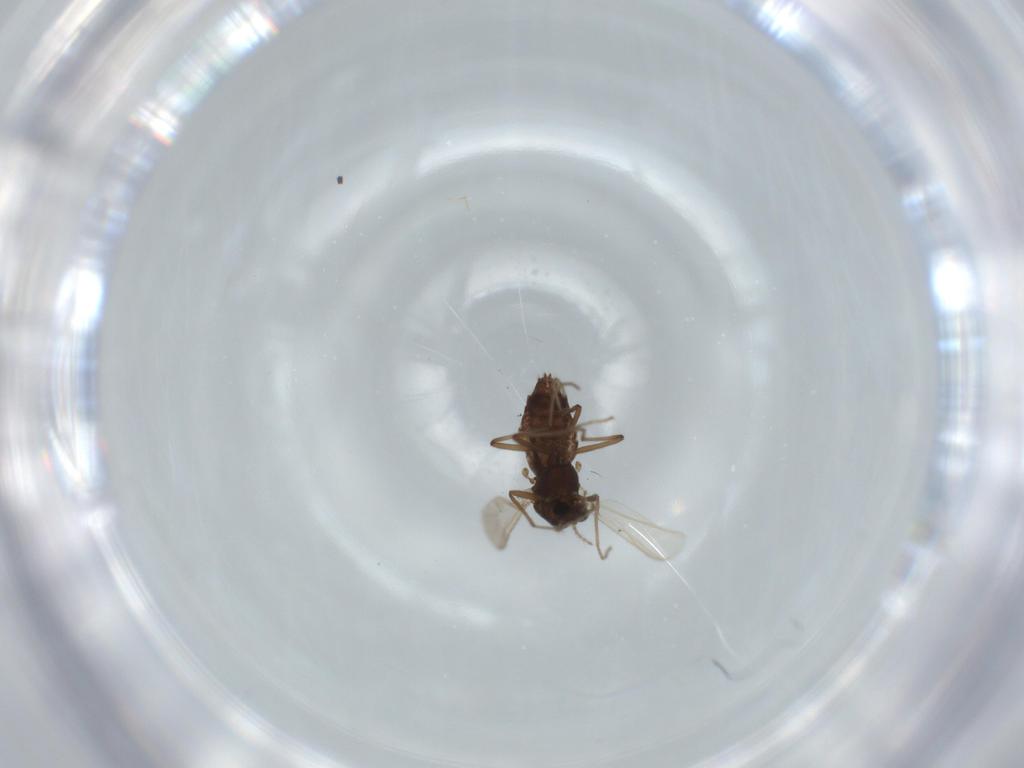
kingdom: Animalia
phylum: Arthropoda
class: Insecta
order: Diptera
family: Chironomidae
